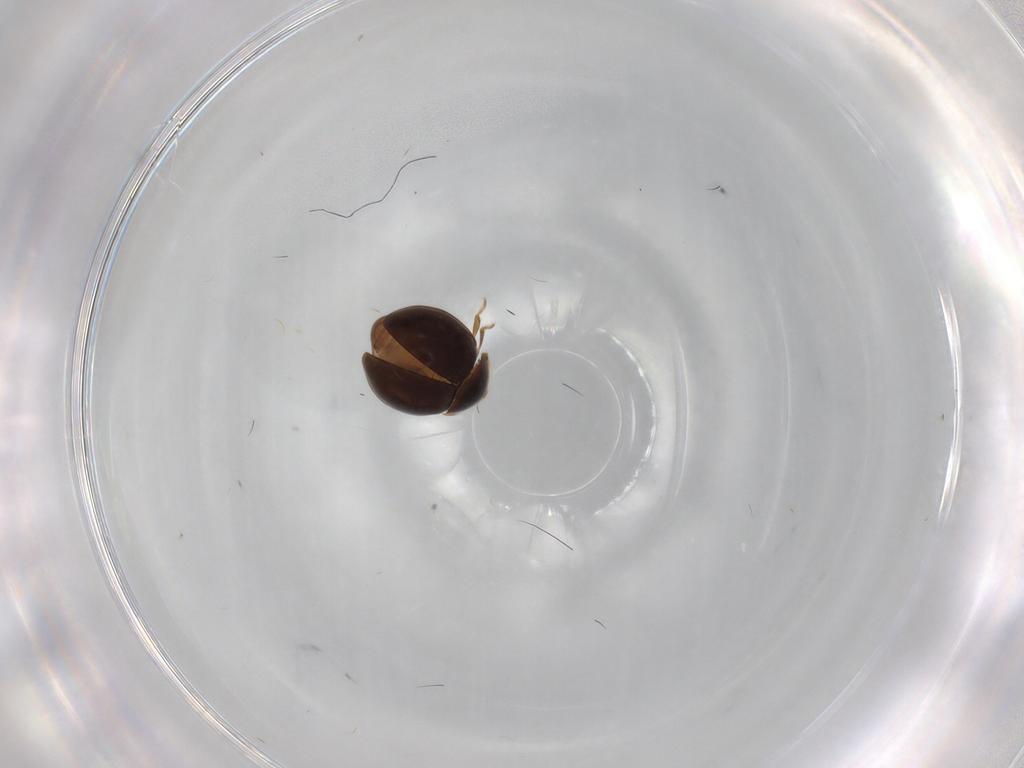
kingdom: Animalia
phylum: Arthropoda
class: Insecta
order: Coleoptera
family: Corylophidae
